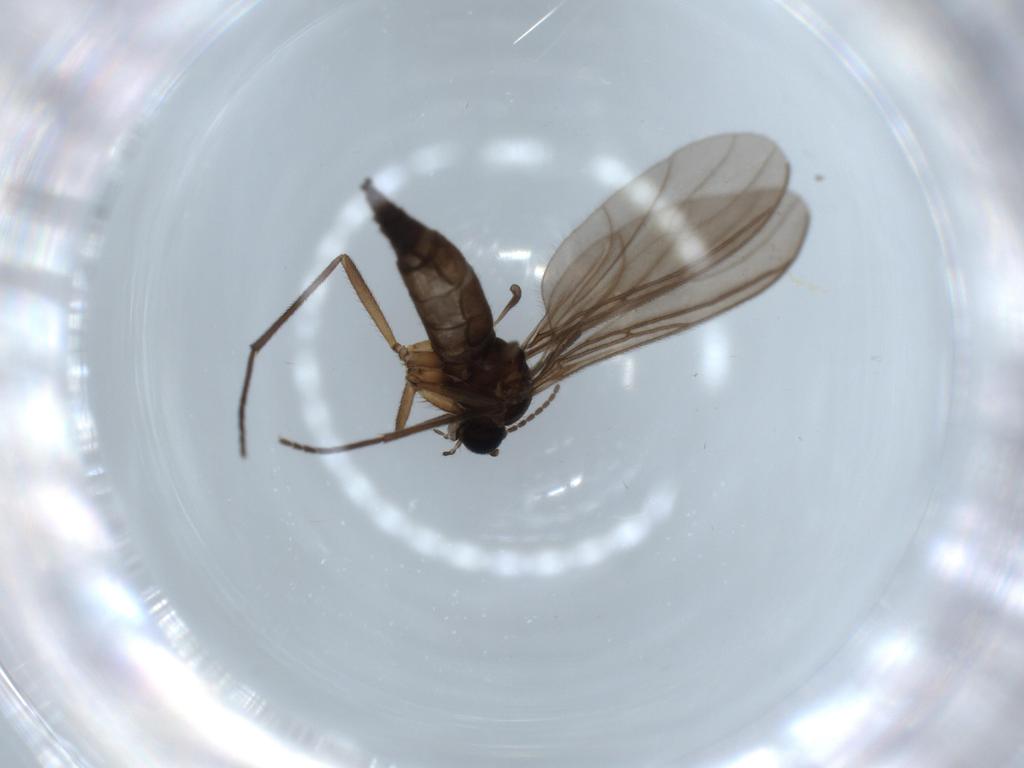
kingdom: Animalia
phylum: Arthropoda
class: Insecta
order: Diptera
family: Sciaridae
